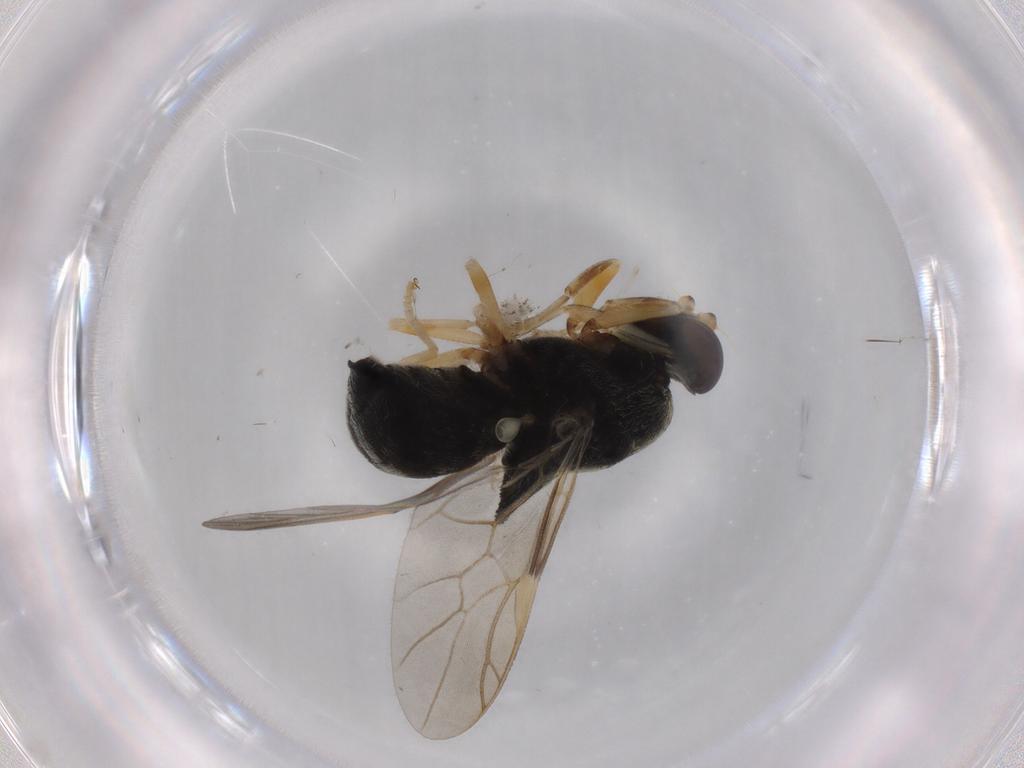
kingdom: Animalia
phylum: Arthropoda
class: Insecta
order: Diptera
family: Stratiomyidae
